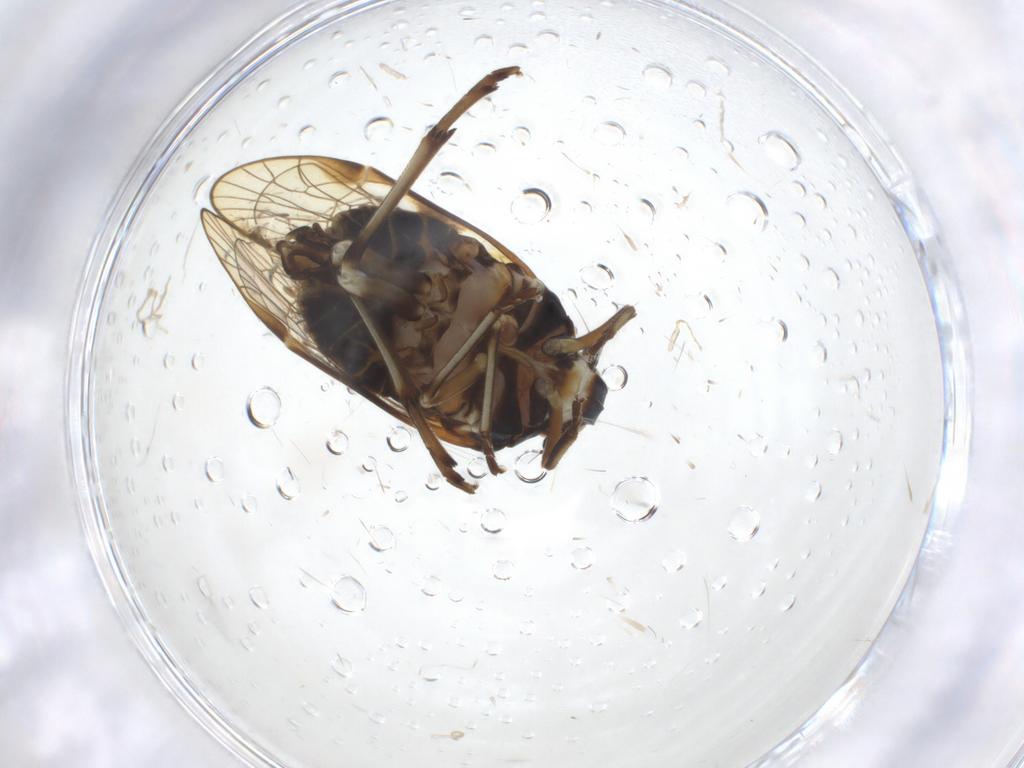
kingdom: Animalia
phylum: Arthropoda
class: Insecta
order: Hemiptera
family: Kinnaridae
